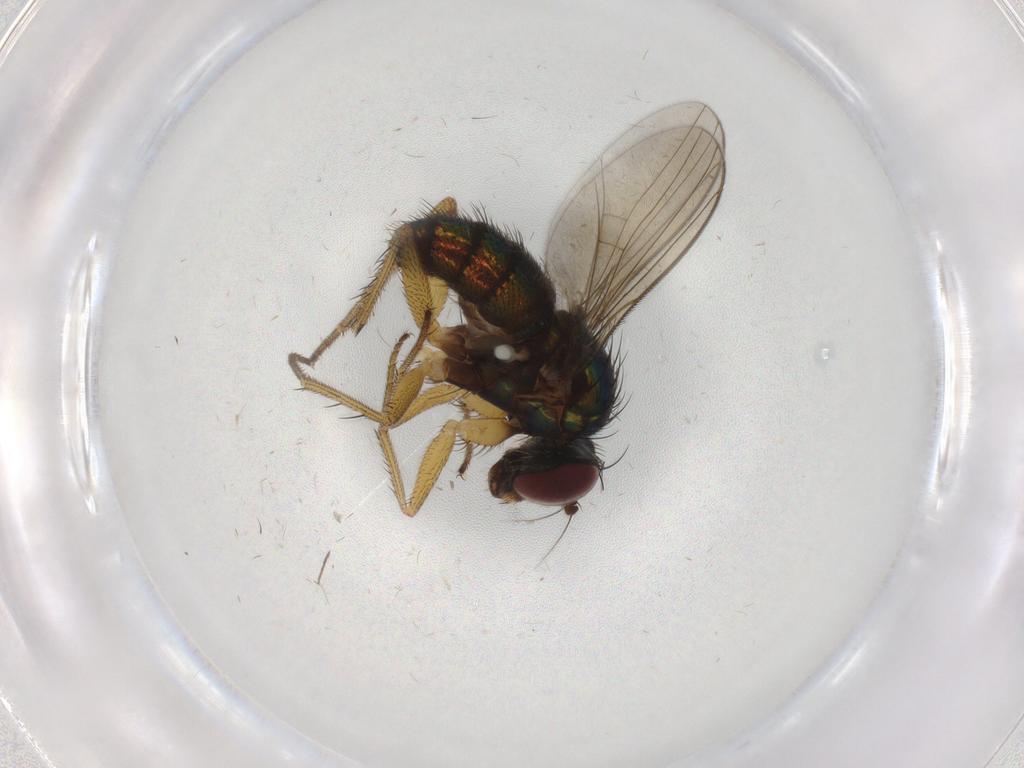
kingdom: Animalia
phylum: Arthropoda
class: Insecta
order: Diptera
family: Dolichopodidae
